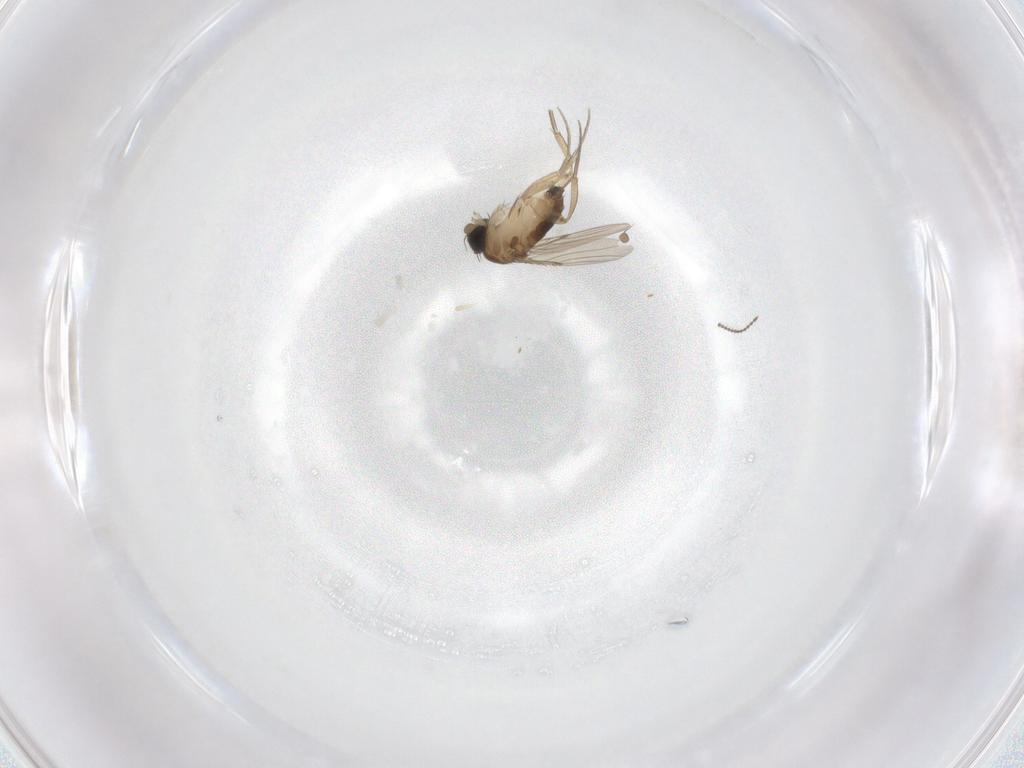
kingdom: Animalia
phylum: Arthropoda
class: Insecta
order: Diptera
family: Phoridae
